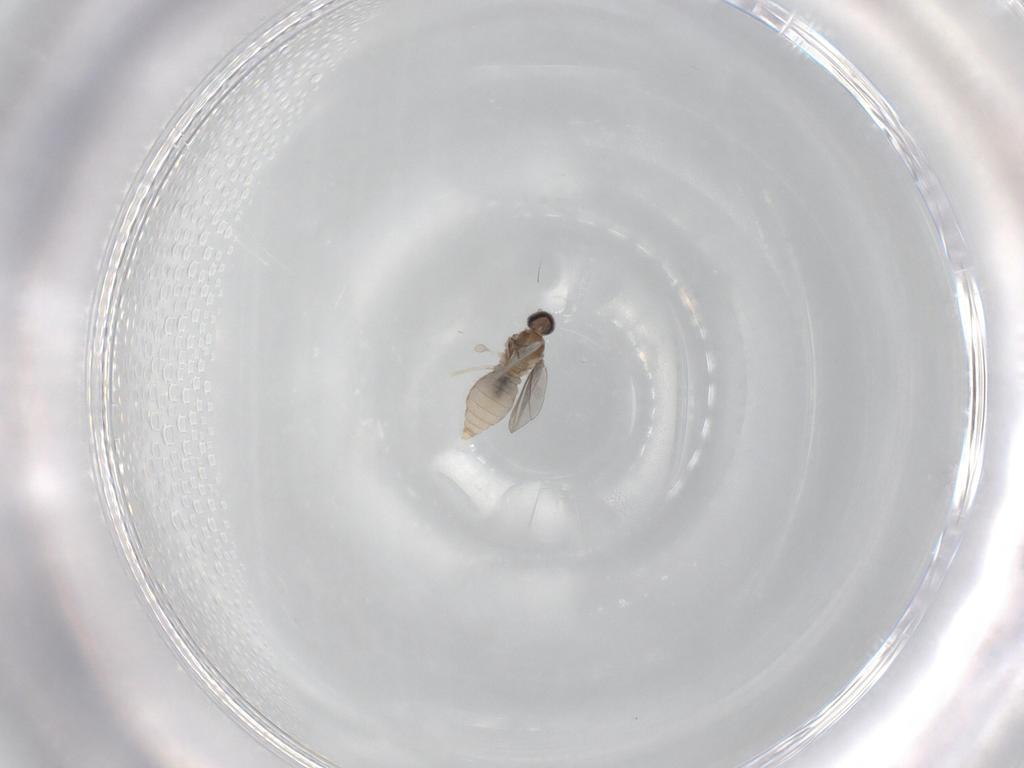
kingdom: Animalia
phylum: Arthropoda
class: Insecta
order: Diptera
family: Cecidomyiidae
